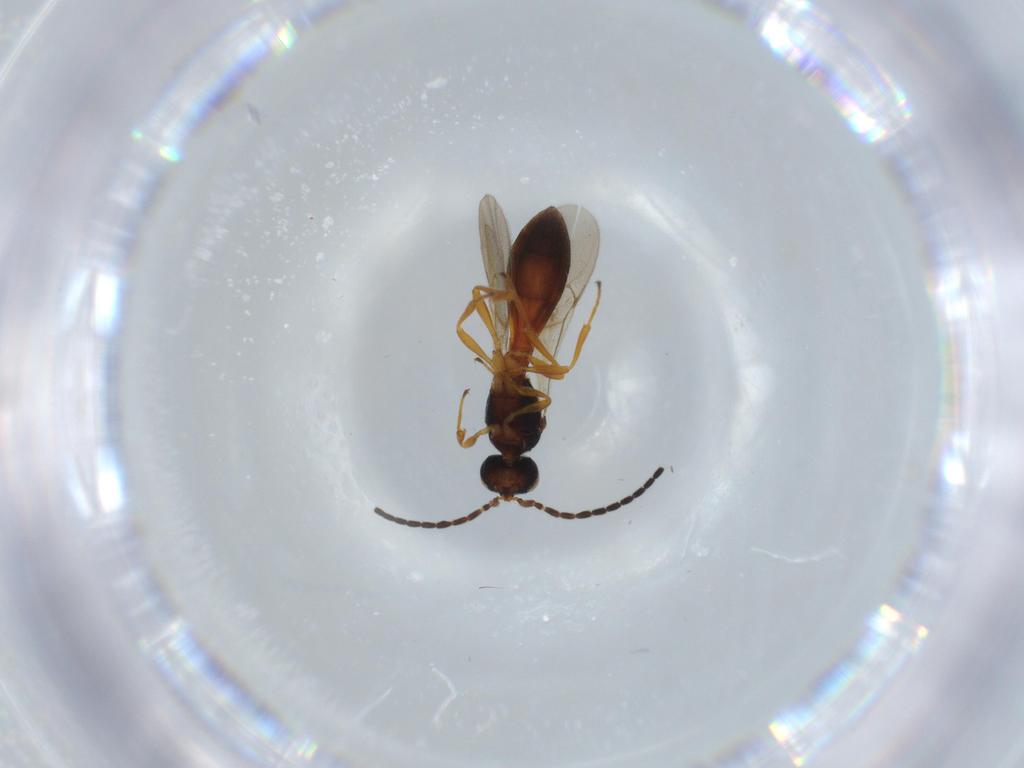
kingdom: Animalia
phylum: Arthropoda
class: Insecta
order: Hymenoptera
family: Scelionidae
